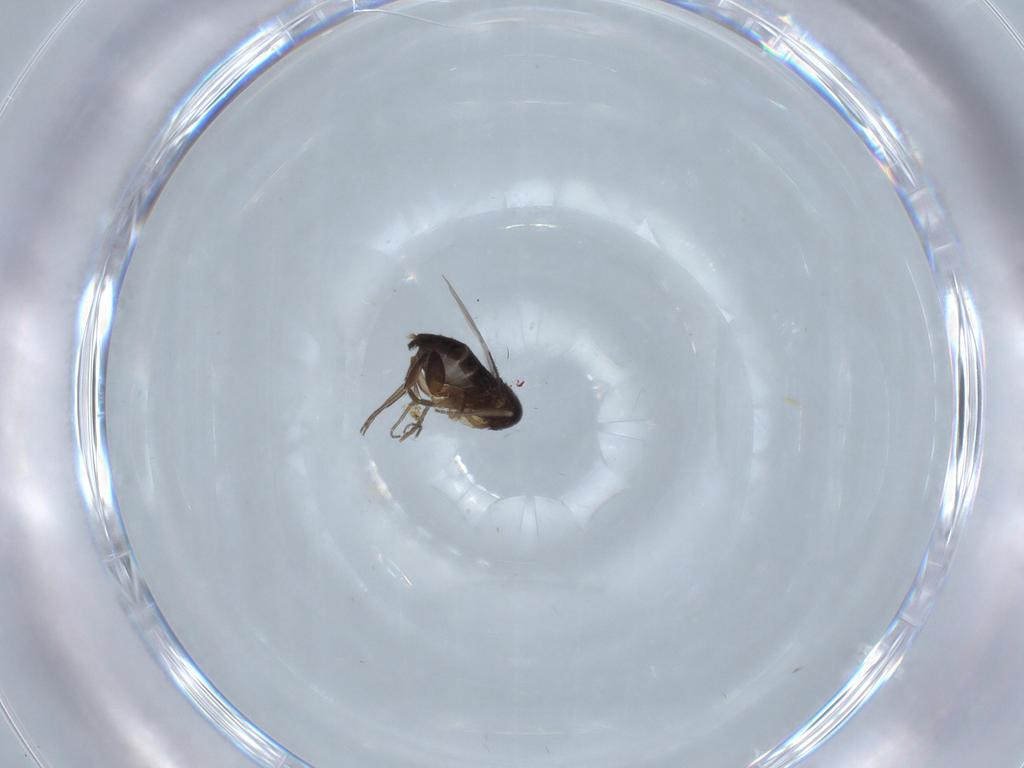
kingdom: Animalia
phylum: Arthropoda
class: Insecta
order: Diptera
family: Phoridae
